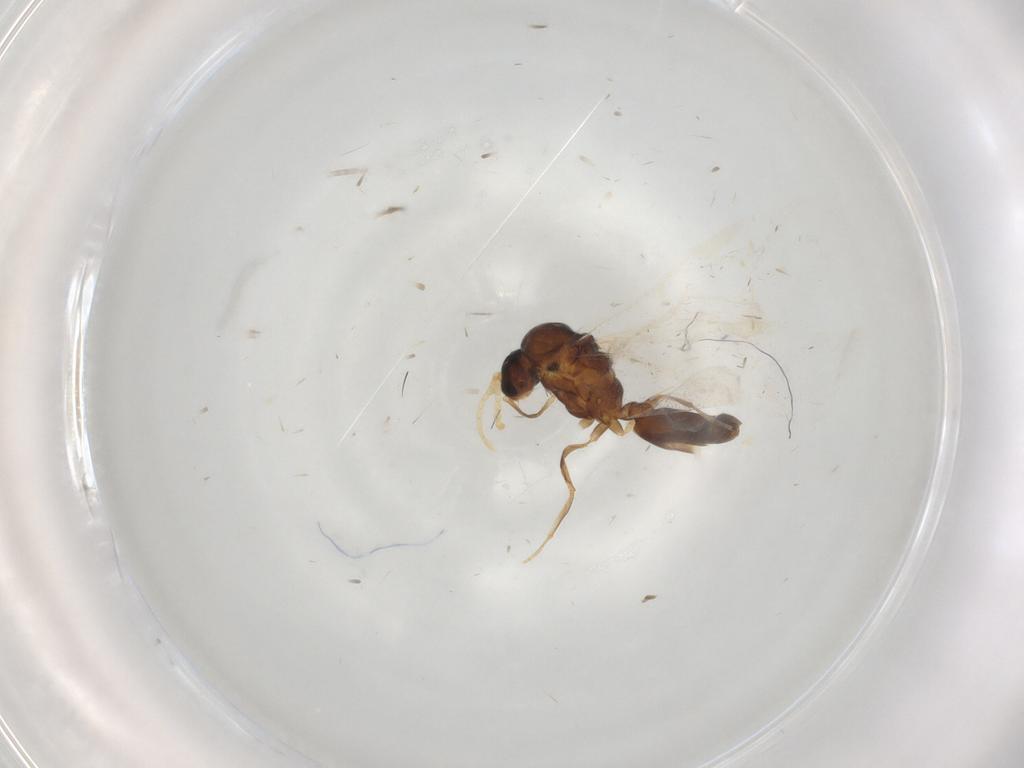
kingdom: Animalia
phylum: Arthropoda
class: Insecta
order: Hymenoptera
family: Formicidae
